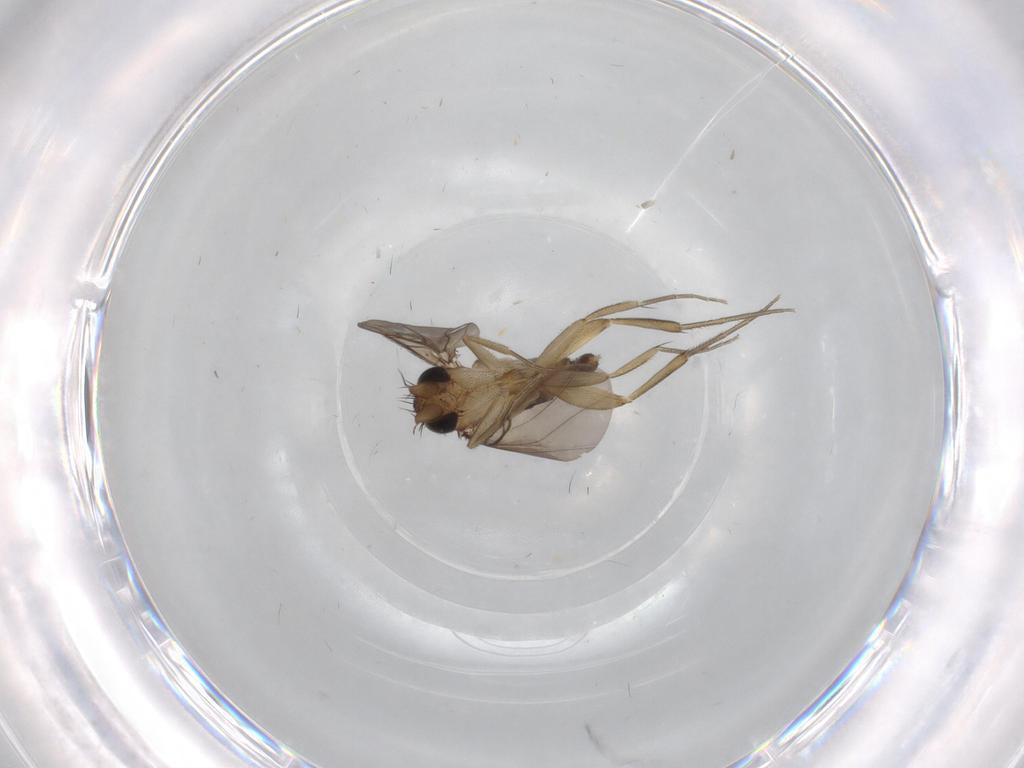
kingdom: Animalia
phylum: Arthropoda
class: Insecta
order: Diptera
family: Phoridae
